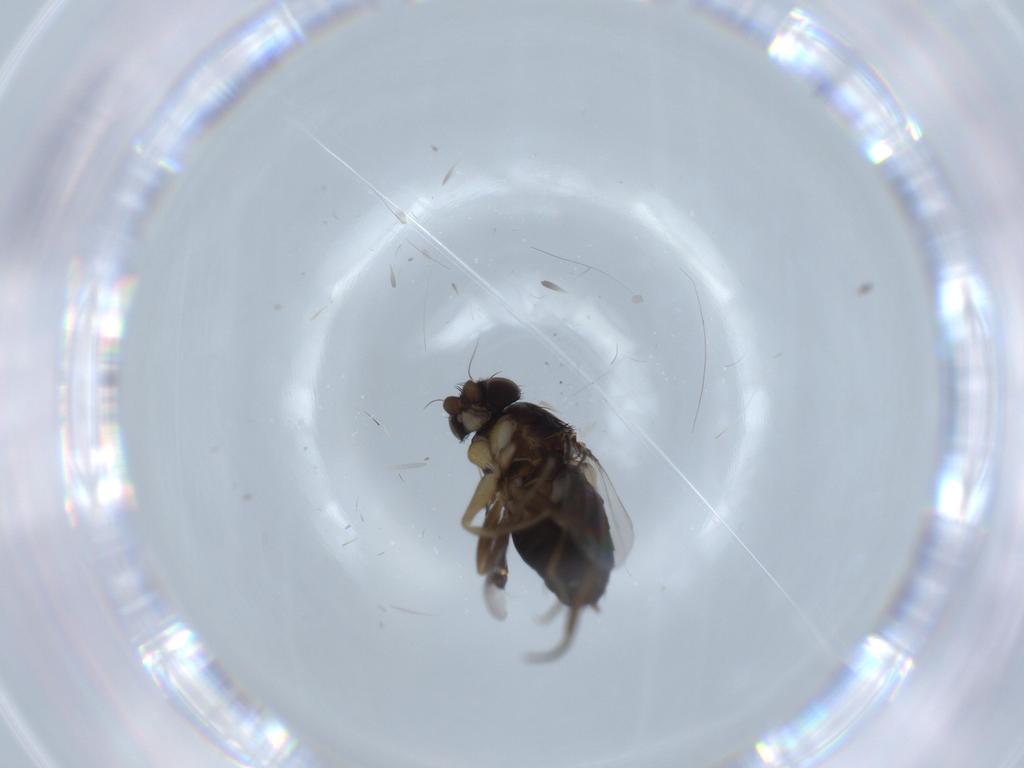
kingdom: Animalia
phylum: Arthropoda
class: Insecta
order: Diptera
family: Phoridae
